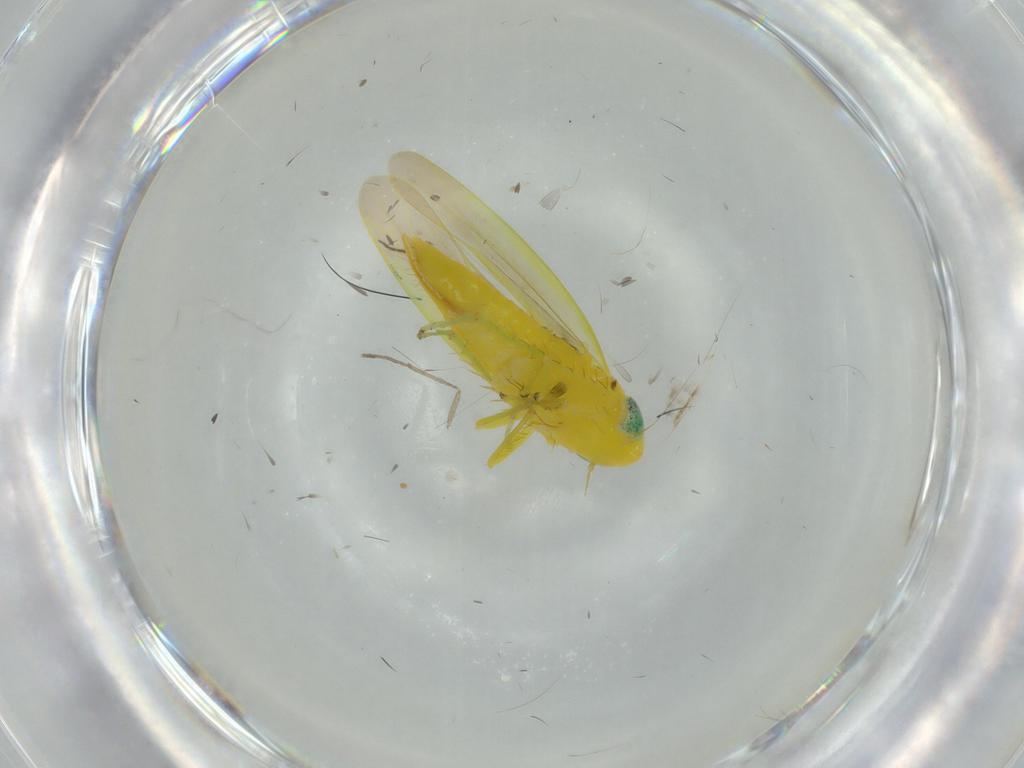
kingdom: Animalia
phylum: Arthropoda
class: Insecta
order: Hemiptera
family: Cicadellidae
